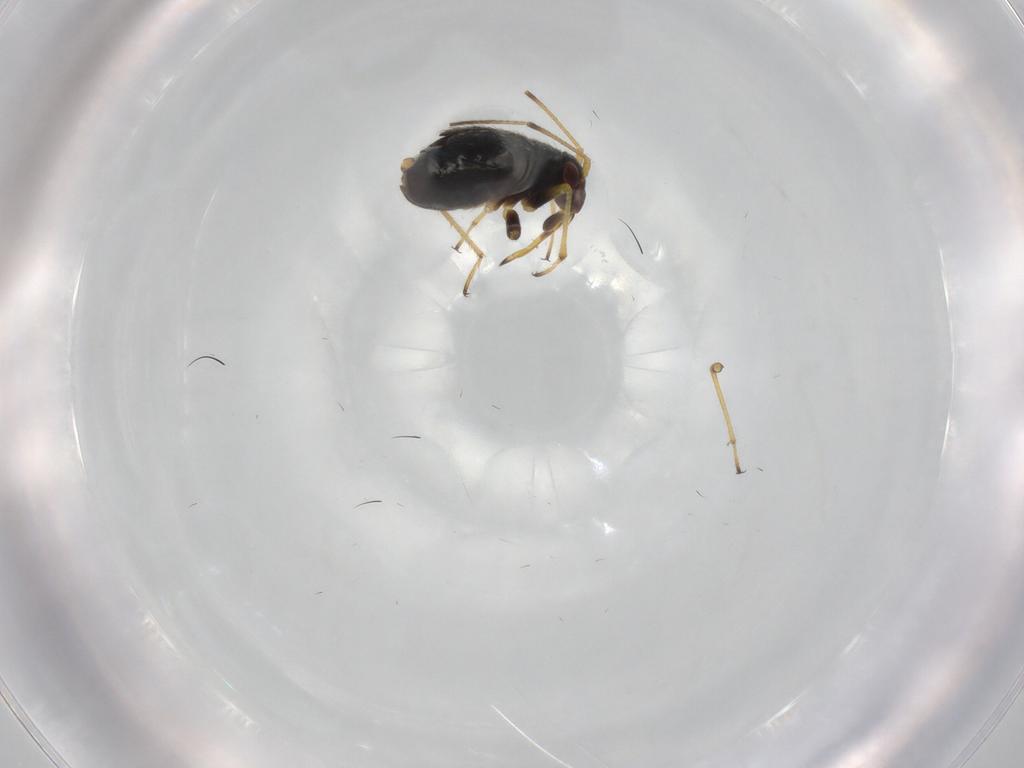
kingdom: Animalia
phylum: Arthropoda
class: Insecta
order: Hemiptera
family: Miridae
